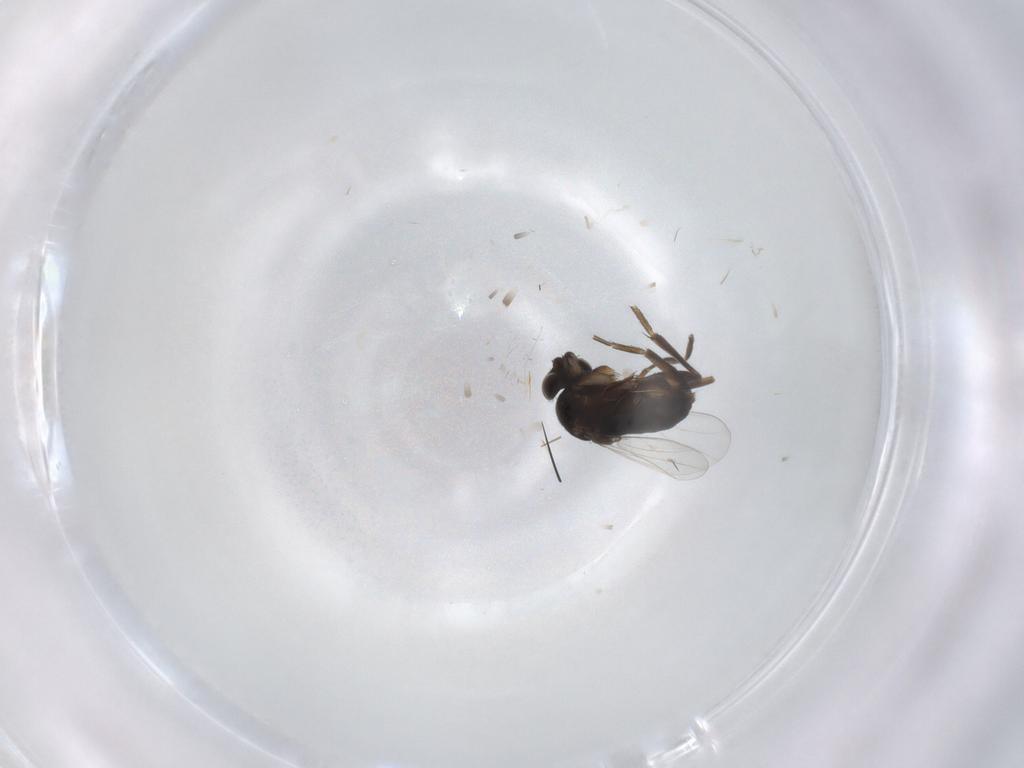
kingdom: Animalia
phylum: Arthropoda
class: Insecta
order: Diptera
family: Phoridae
